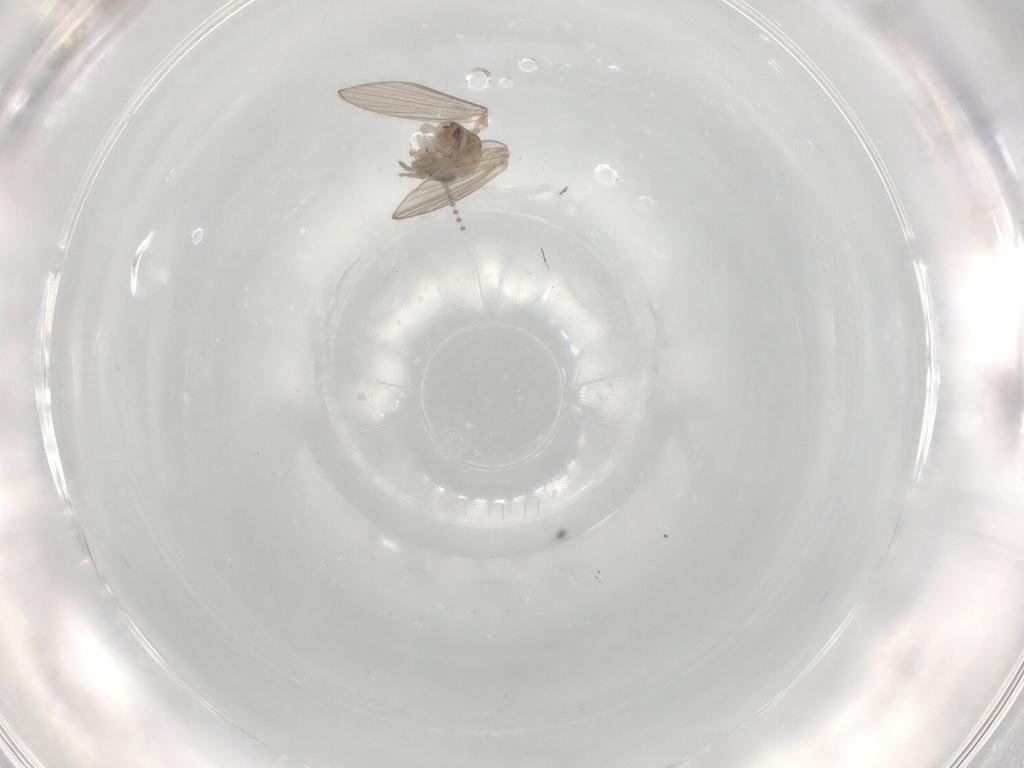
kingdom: Animalia
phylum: Arthropoda
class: Insecta
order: Diptera
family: Psychodidae
